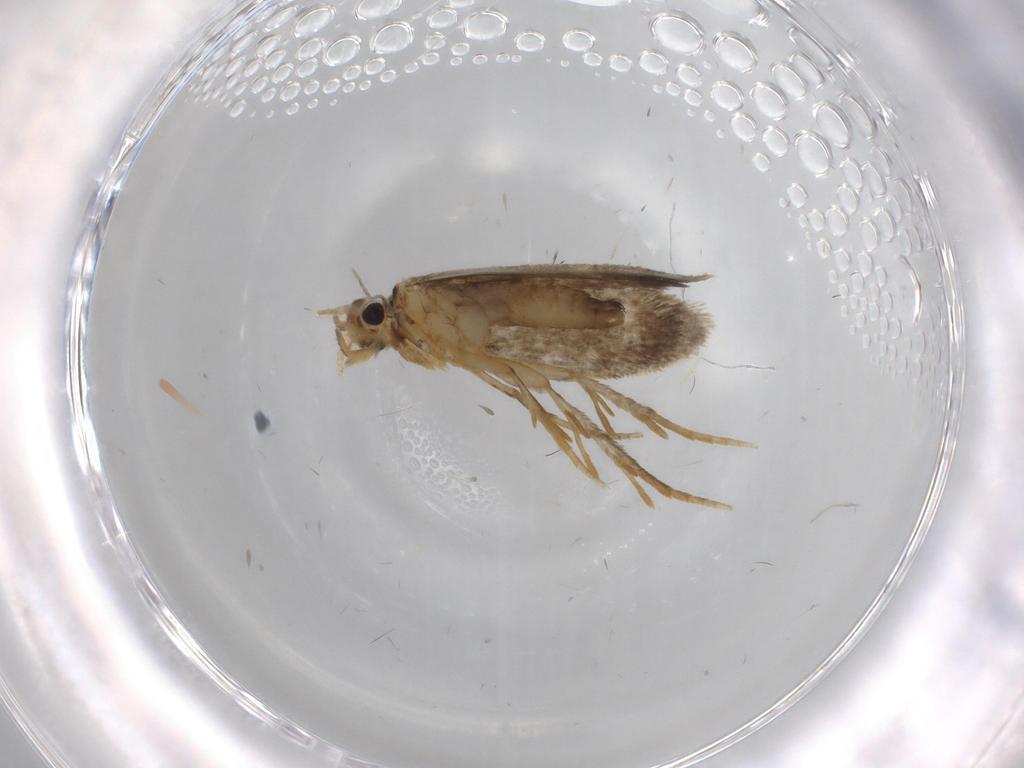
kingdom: Animalia
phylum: Arthropoda
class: Insecta
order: Lepidoptera
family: Psychidae
